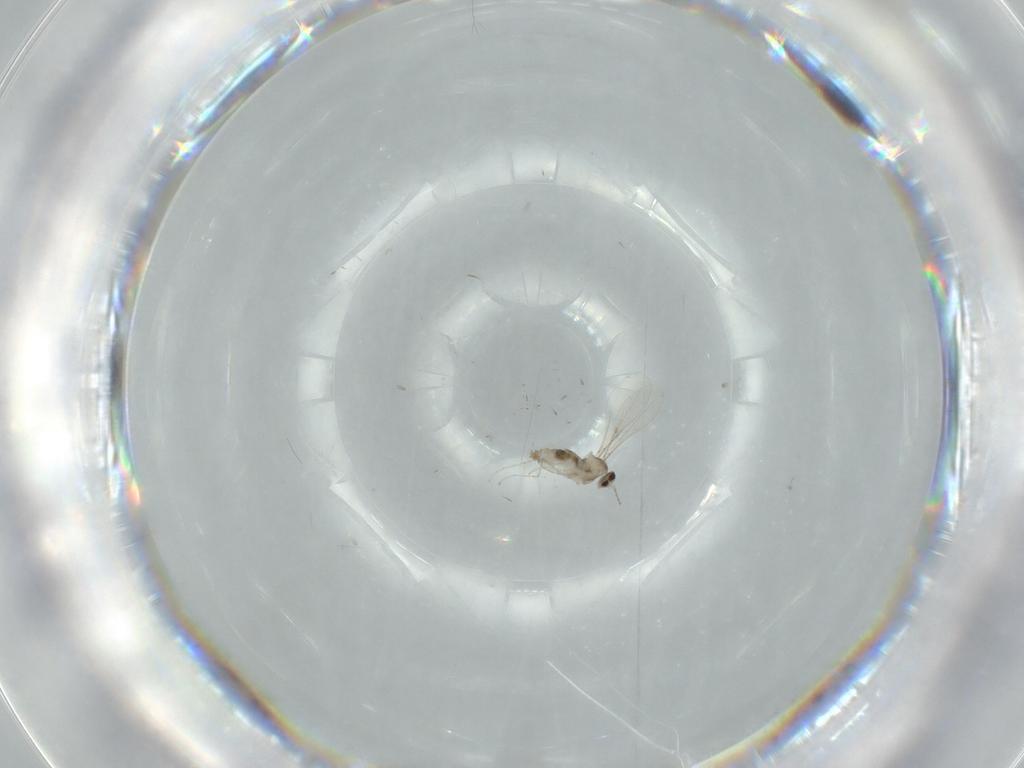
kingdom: Animalia
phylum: Arthropoda
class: Insecta
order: Diptera
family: Cecidomyiidae
